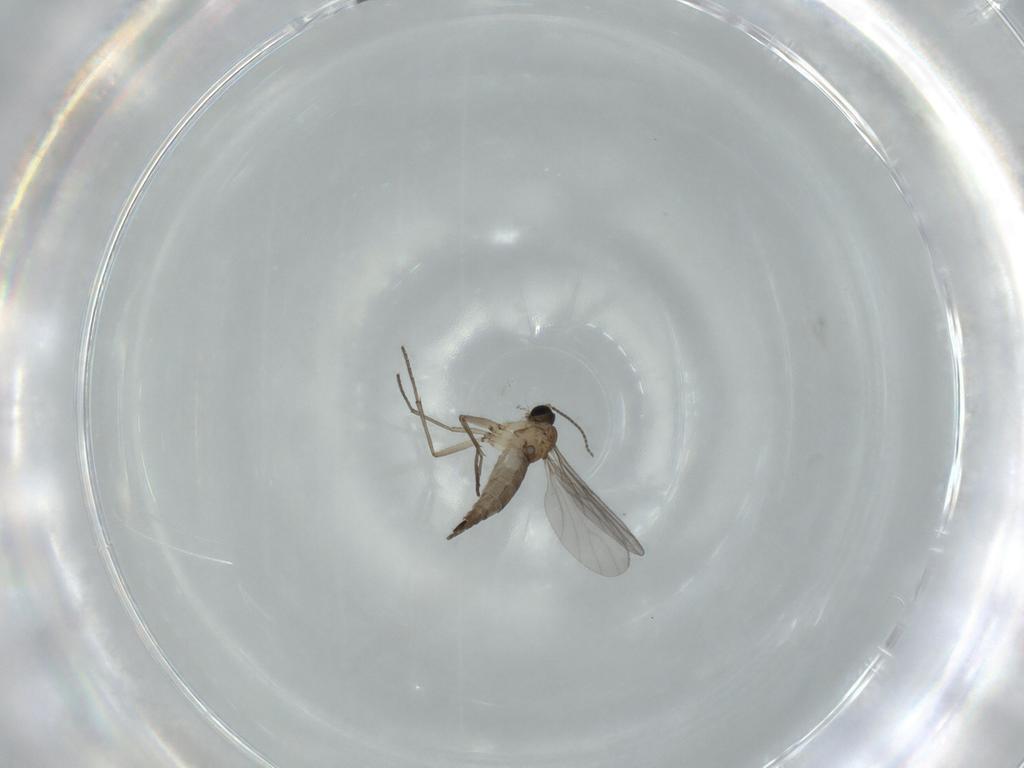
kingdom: Animalia
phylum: Arthropoda
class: Insecta
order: Diptera
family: Sciaridae
